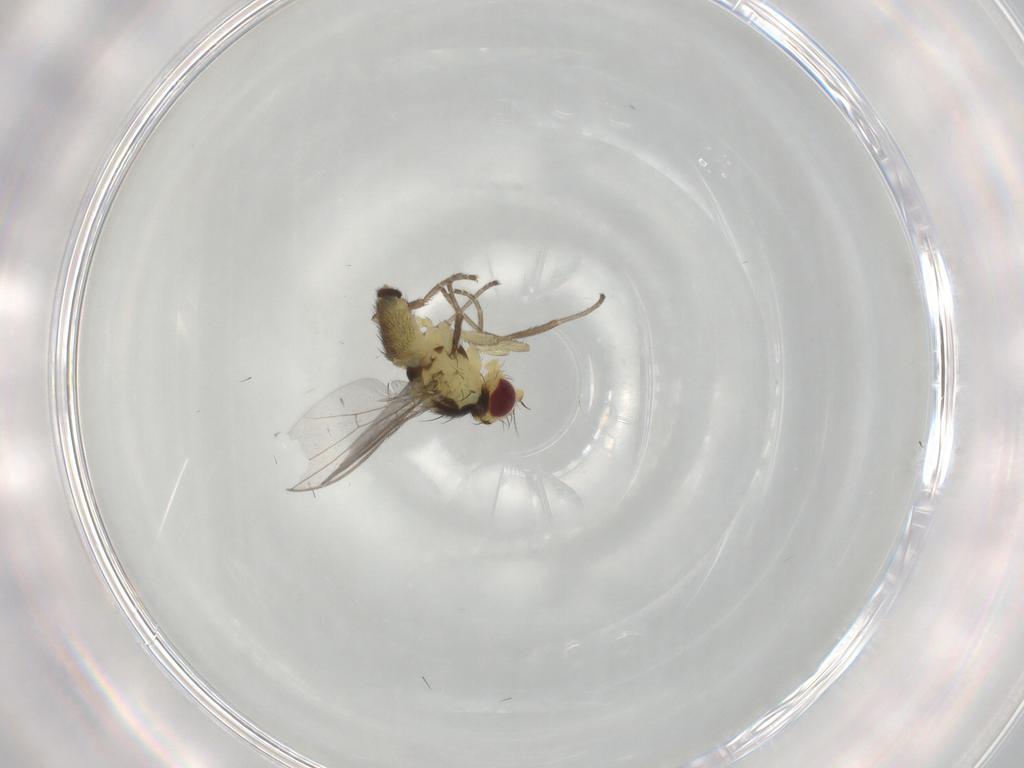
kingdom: Animalia
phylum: Arthropoda
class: Insecta
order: Diptera
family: Agromyzidae
